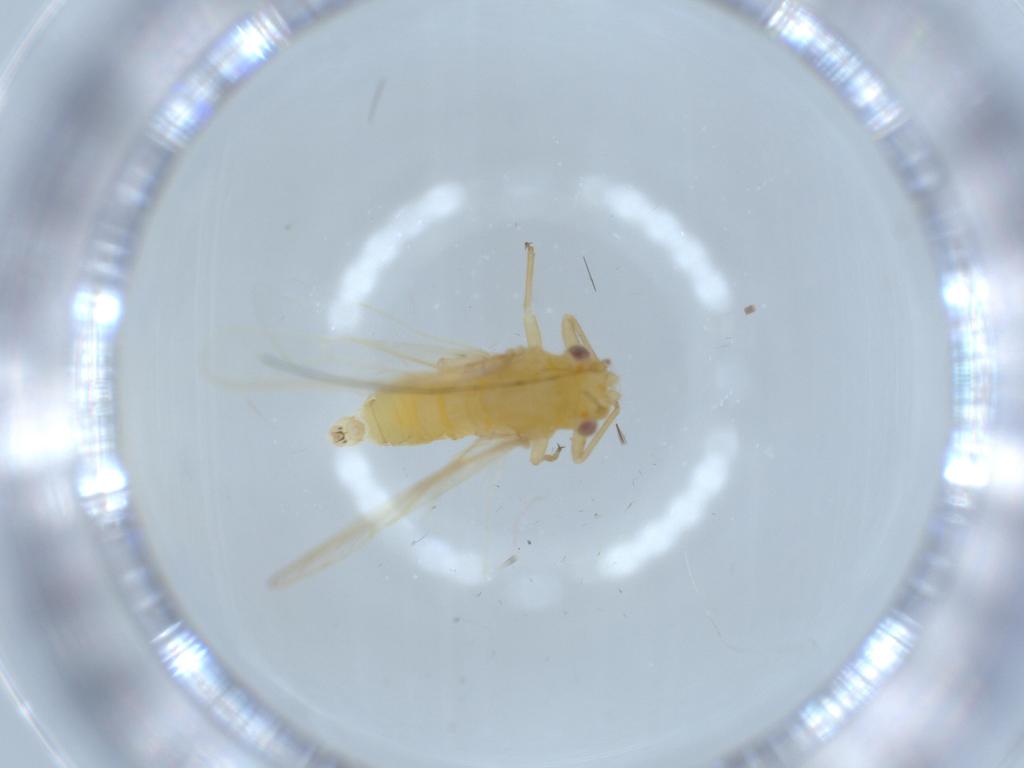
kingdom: Animalia
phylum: Arthropoda
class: Insecta
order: Hemiptera
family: Psyllidae
